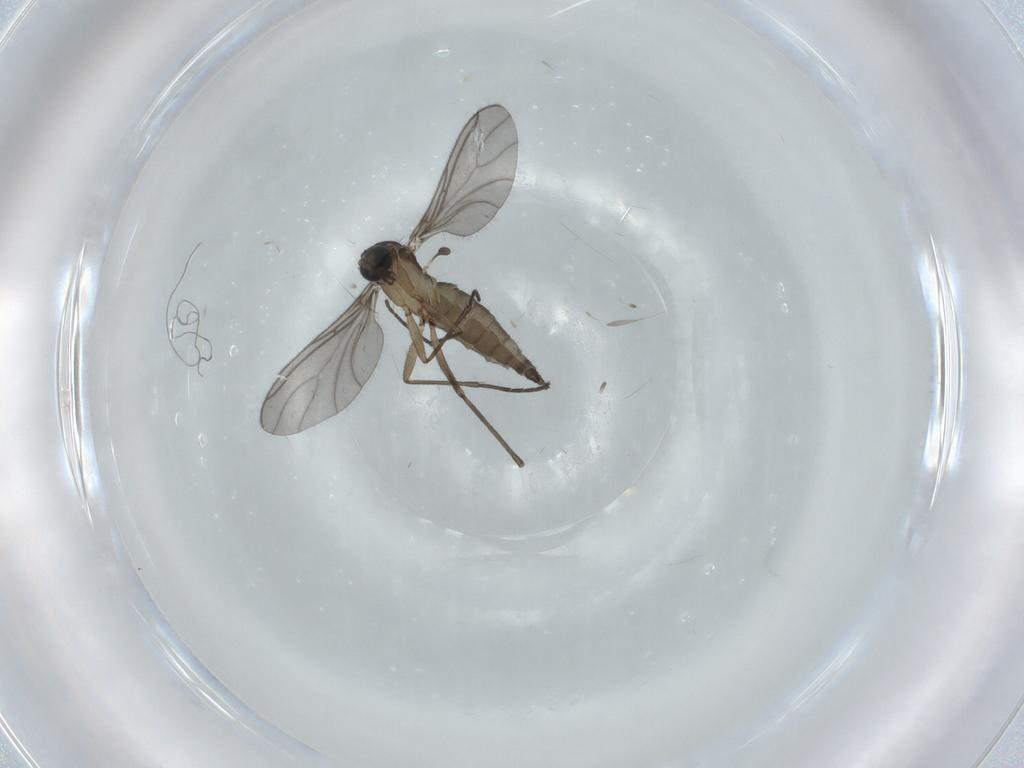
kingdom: Animalia
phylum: Arthropoda
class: Insecta
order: Diptera
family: Sciaridae
